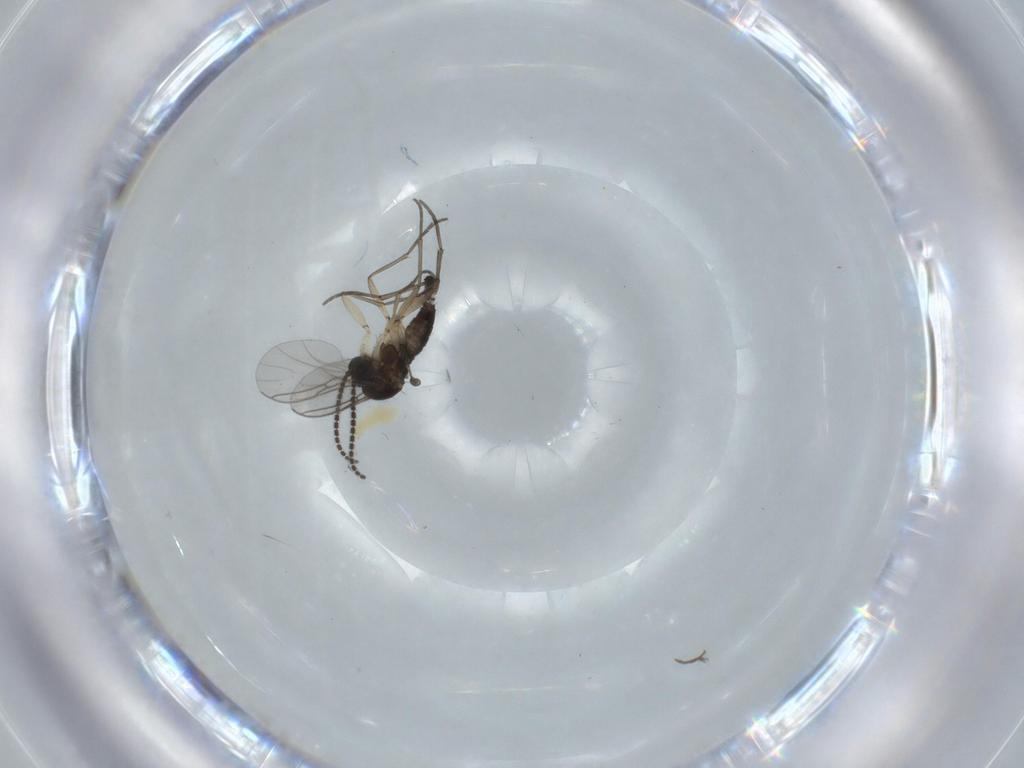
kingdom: Animalia
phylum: Arthropoda
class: Insecta
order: Diptera
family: Sciaridae
